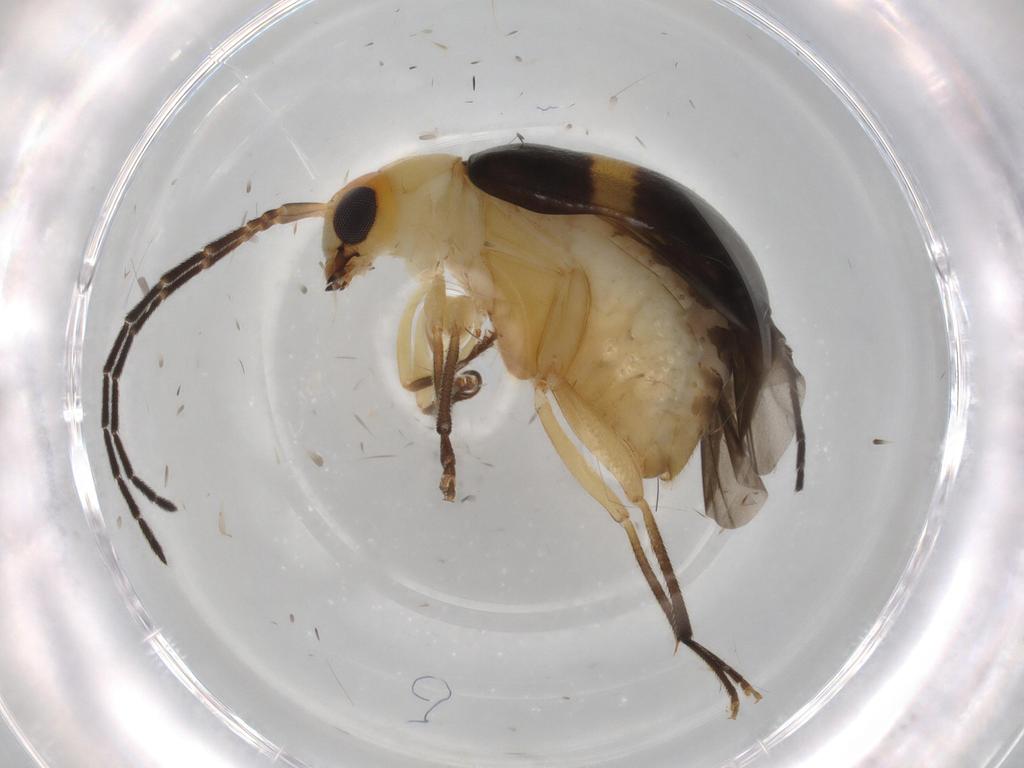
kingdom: Animalia
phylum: Arthropoda
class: Insecta
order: Coleoptera
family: Chrysomelidae
